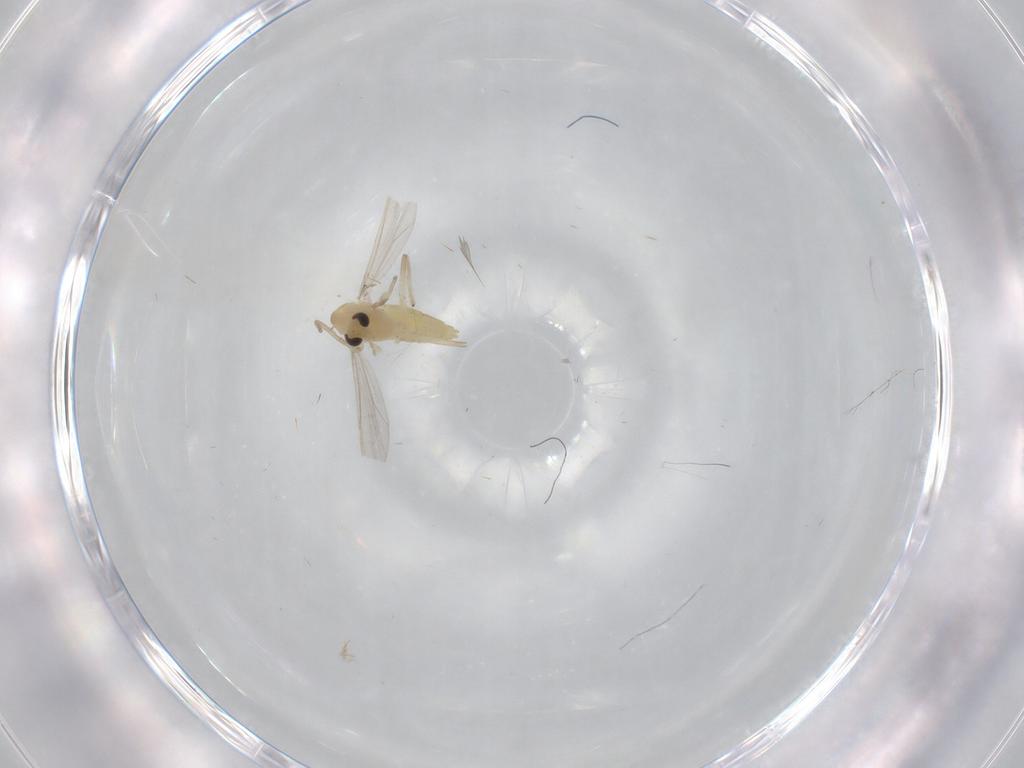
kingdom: Animalia
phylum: Arthropoda
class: Insecta
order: Diptera
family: Chironomidae
